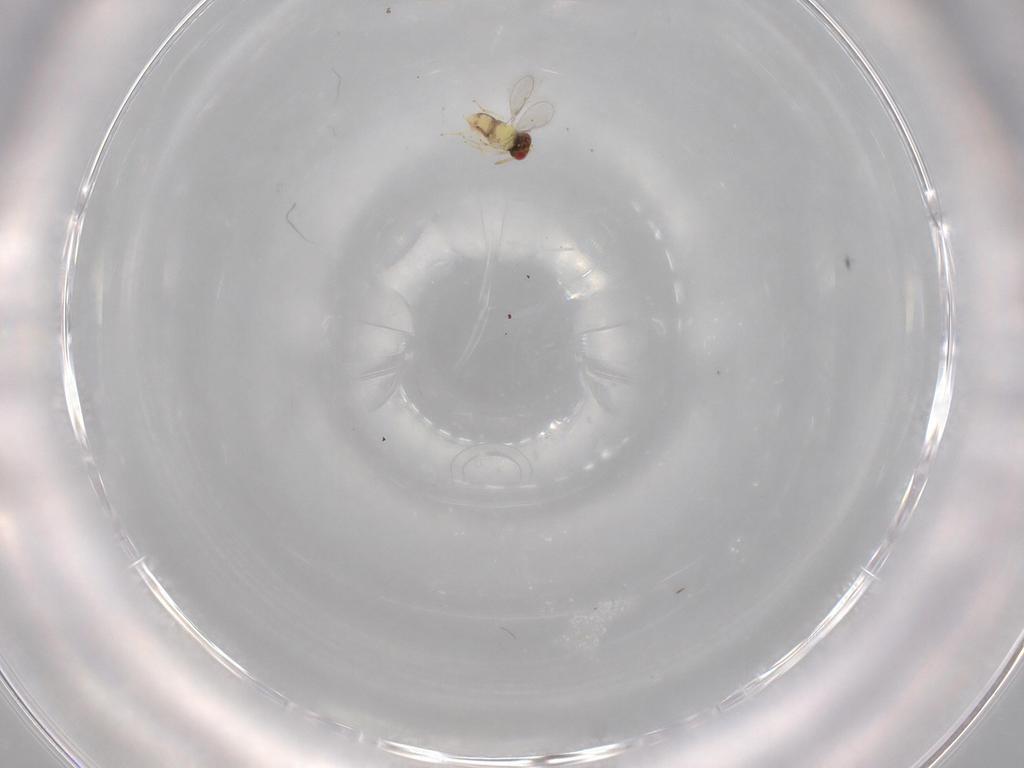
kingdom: Animalia
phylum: Arthropoda
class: Insecta
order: Hymenoptera
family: Aphelinidae
